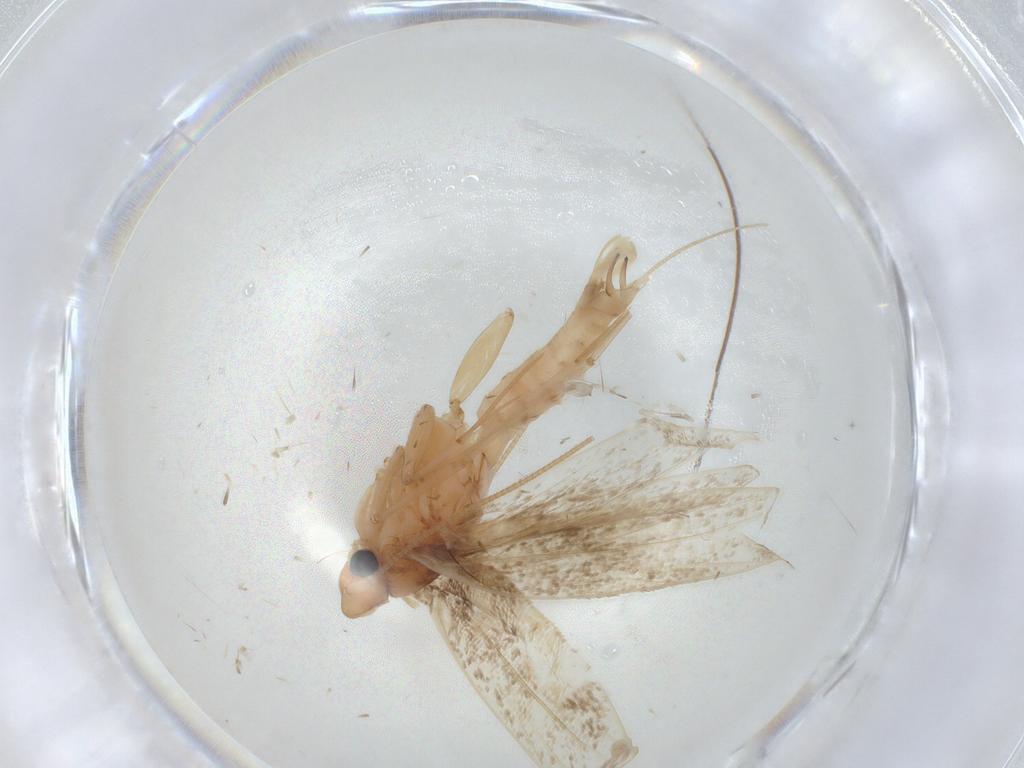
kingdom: Animalia
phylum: Arthropoda
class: Insecta
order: Lepidoptera
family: Tineidae
